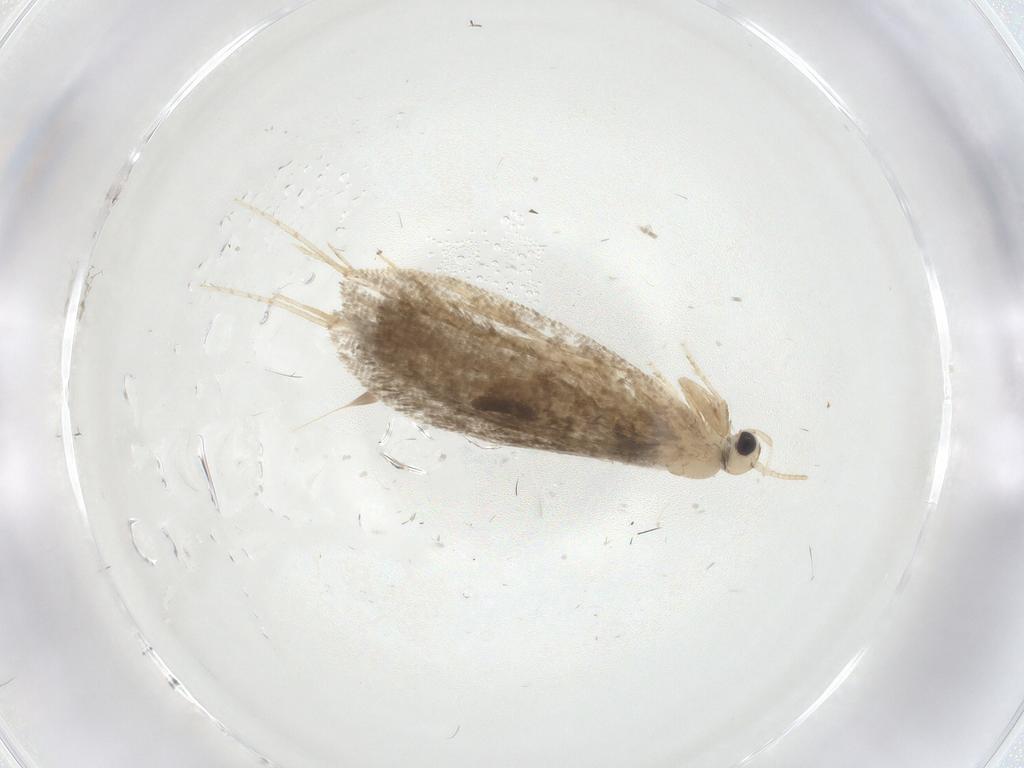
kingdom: Animalia
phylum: Arthropoda
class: Insecta
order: Lepidoptera
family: Psychidae
